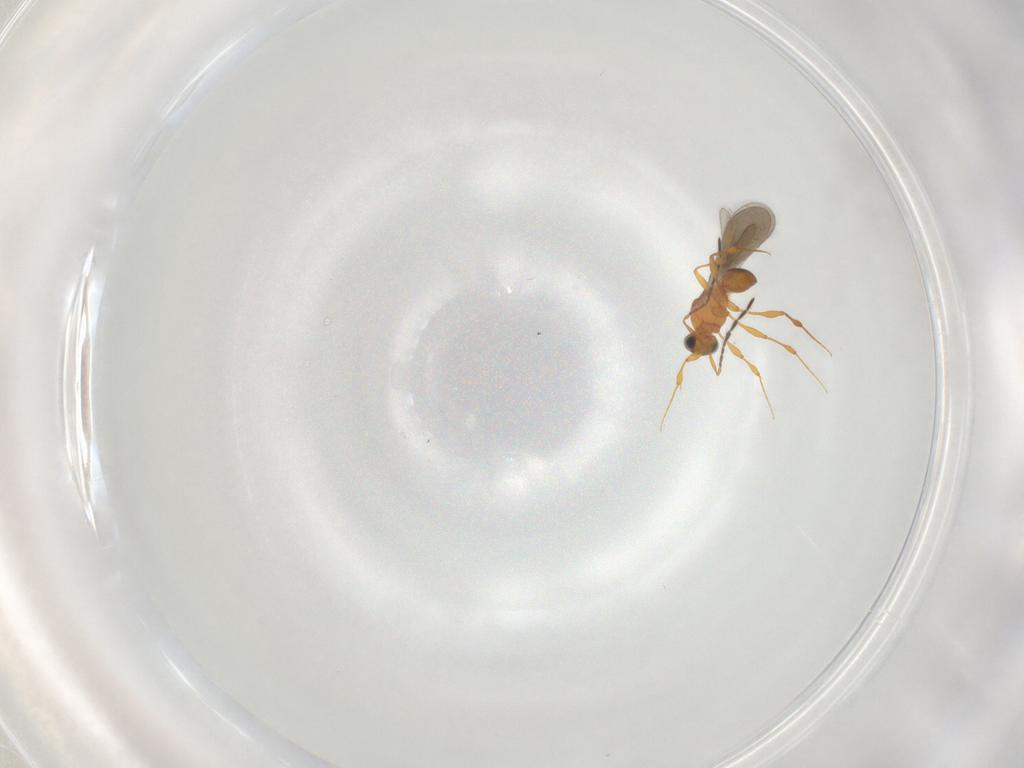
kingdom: Animalia
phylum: Arthropoda
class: Insecta
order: Hymenoptera
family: Platygastridae
